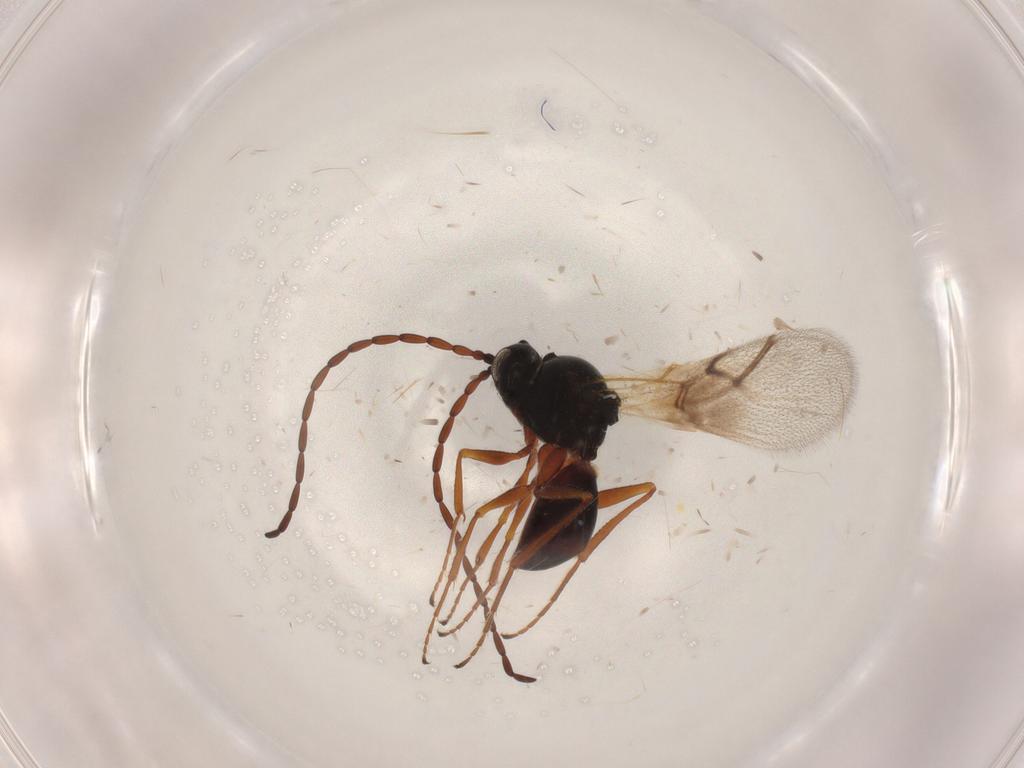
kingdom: Animalia
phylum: Arthropoda
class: Insecta
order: Hymenoptera
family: Figitidae
